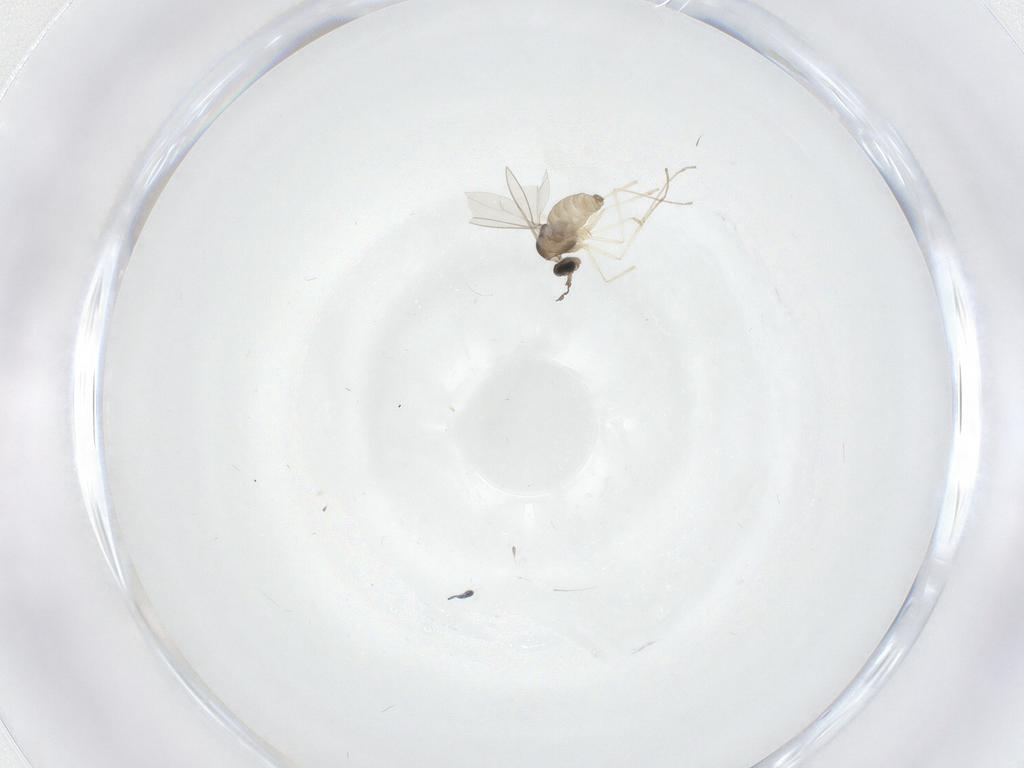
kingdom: Animalia
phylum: Arthropoda
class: Insecta
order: Diptera
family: Cecidomyiidae
